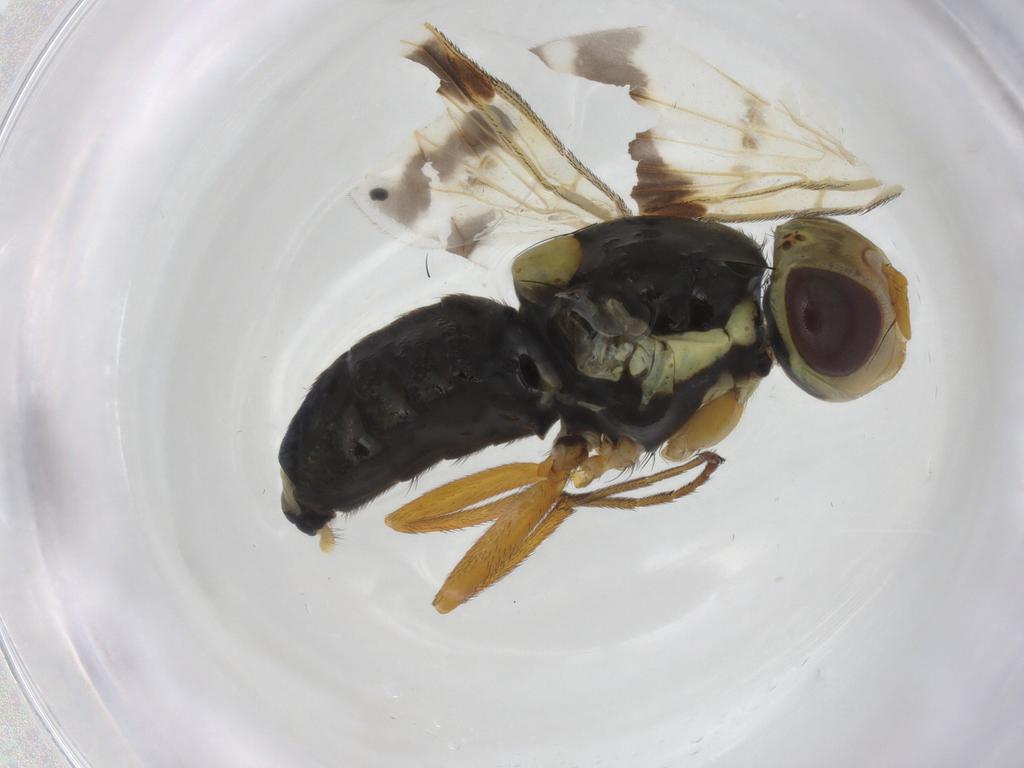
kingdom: Animalia
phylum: Arthropoda
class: Insecta
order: Diptera
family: Tephritidae
